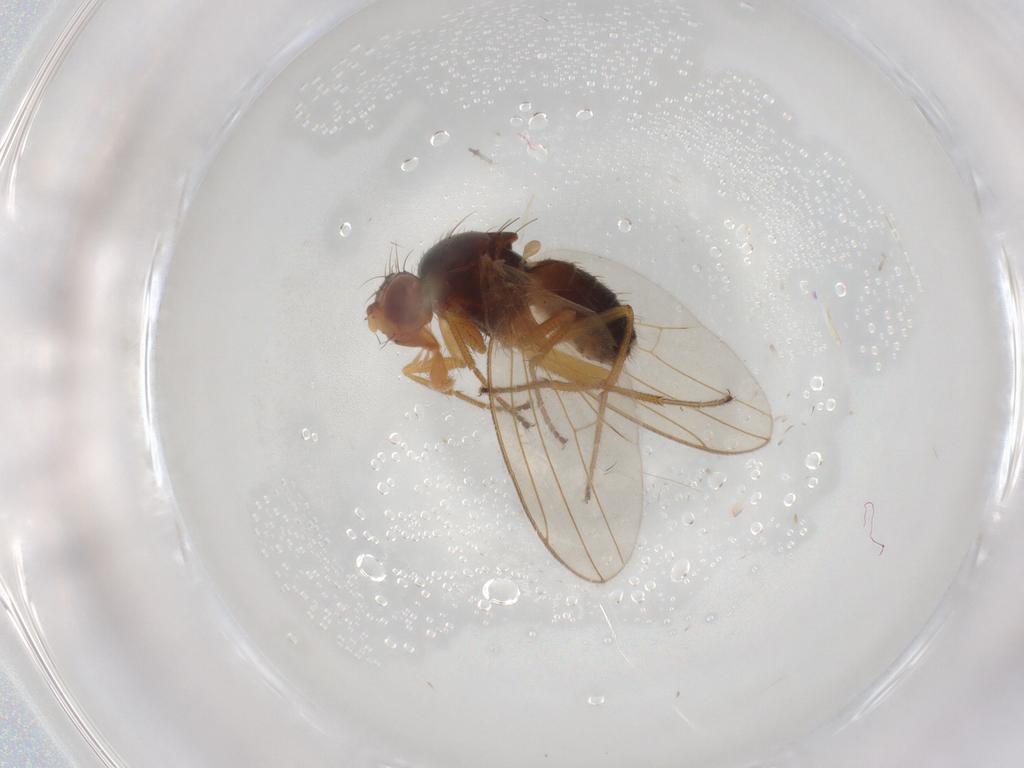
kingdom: Animalia
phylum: Arthropoda
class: Insecta
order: Diptera
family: Drosophilidae
